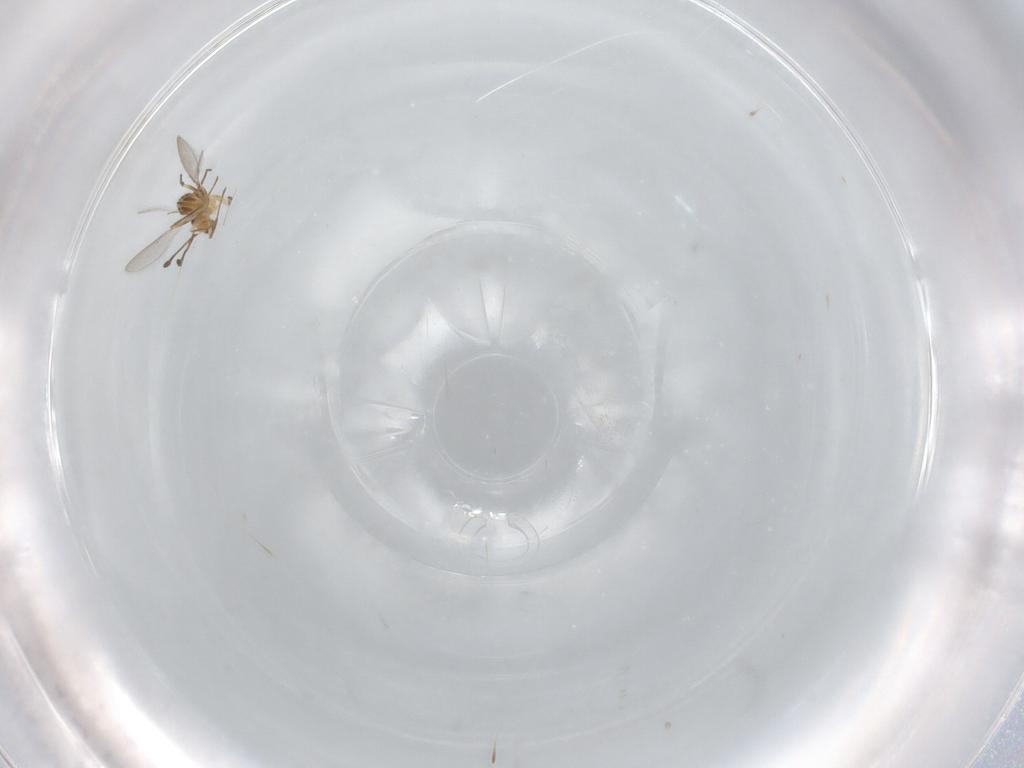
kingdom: Animalia
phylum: Arthropoda
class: Insecta
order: Hymenoptera
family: Mymaridae
